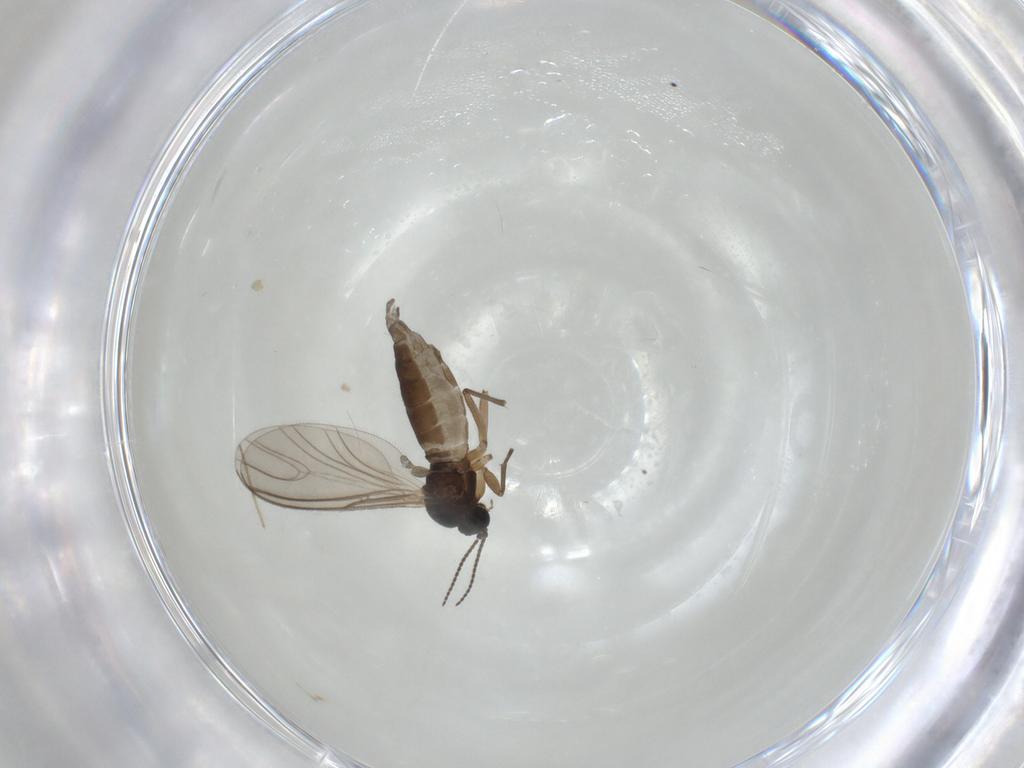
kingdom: Animalia
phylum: Arthropoda
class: Insecta
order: Diptera
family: Sciaridae
